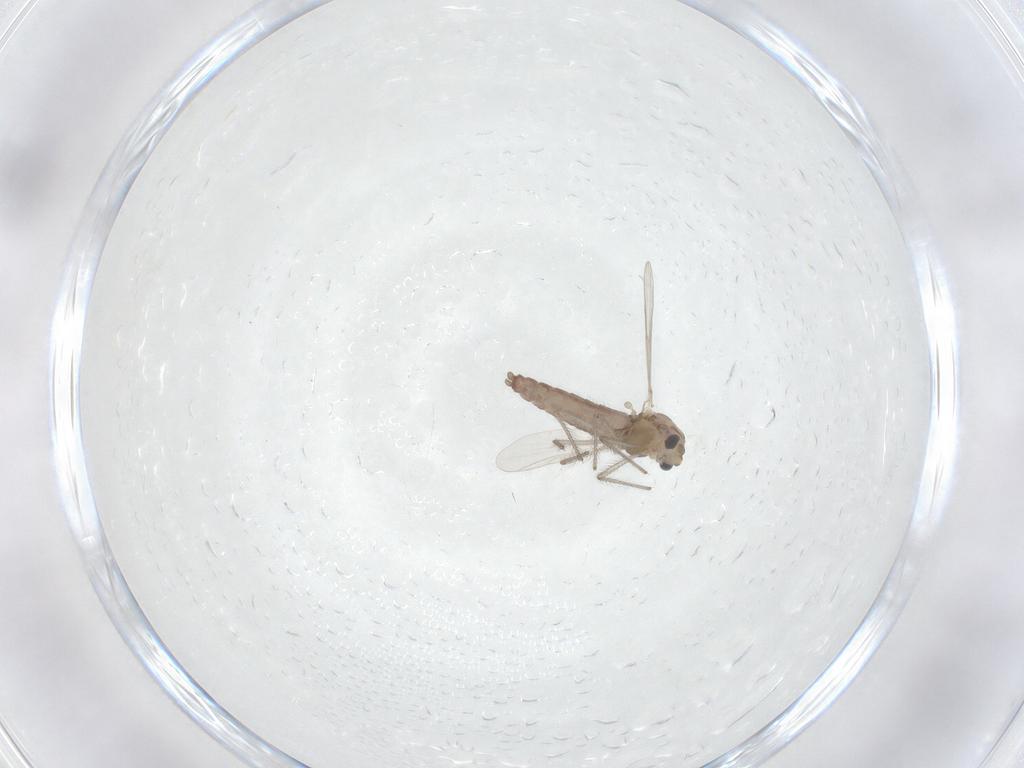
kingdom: Animalia
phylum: Arthropoda
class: Insecta
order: Diptera
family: Chironomidae
